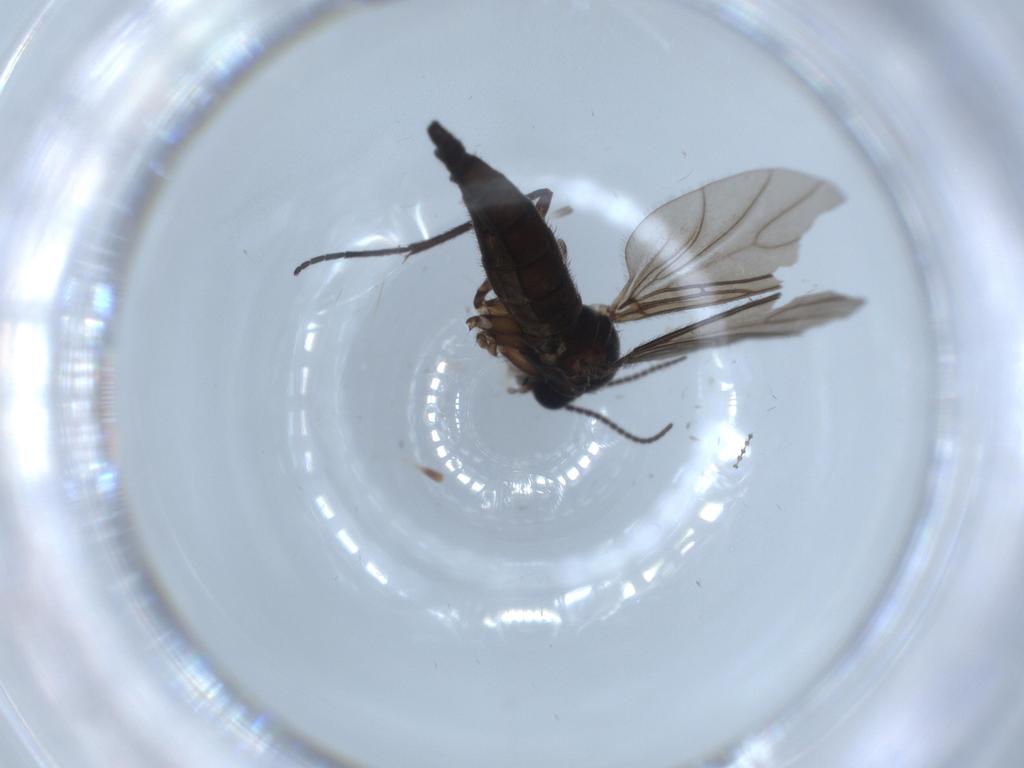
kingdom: Animalia
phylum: Arthropoda
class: Insecta
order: Diptera
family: Sciaridae
